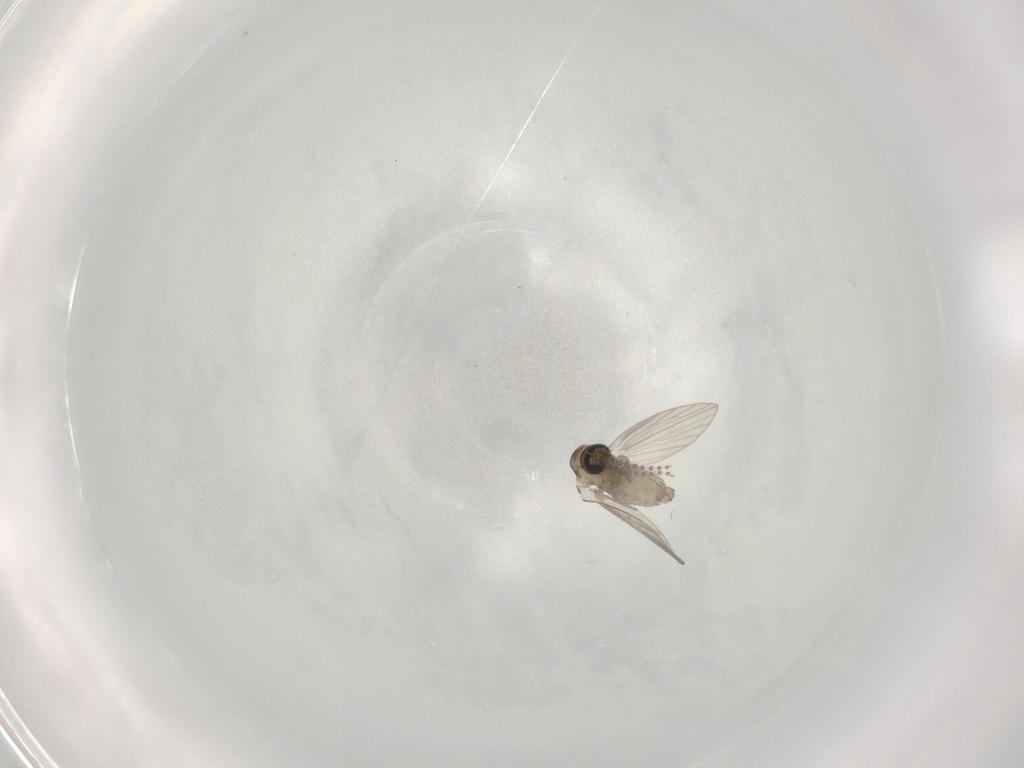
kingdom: Animalia
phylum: Arthropoda
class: Insecta
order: Diptera
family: Psychodidae
